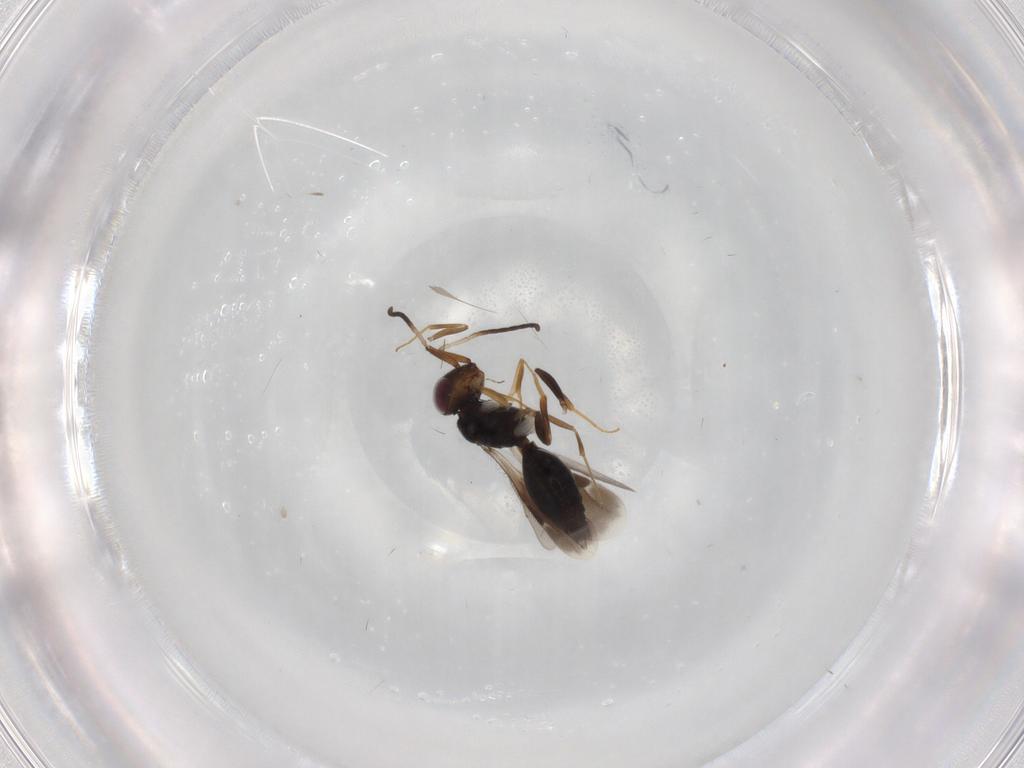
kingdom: Animalia
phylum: Arthropoda
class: Insecta
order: Hymenoptera
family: Megaspilidae
